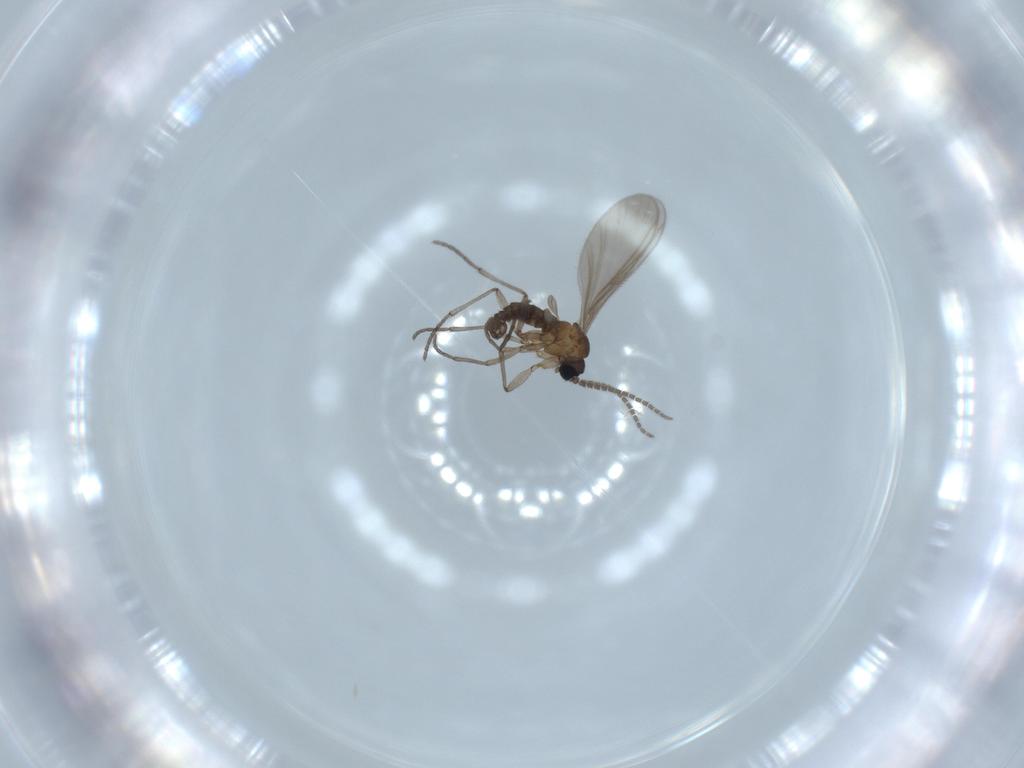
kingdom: Animalia
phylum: Arthropoda
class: Insecta
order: Diptera
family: Sciaridae
